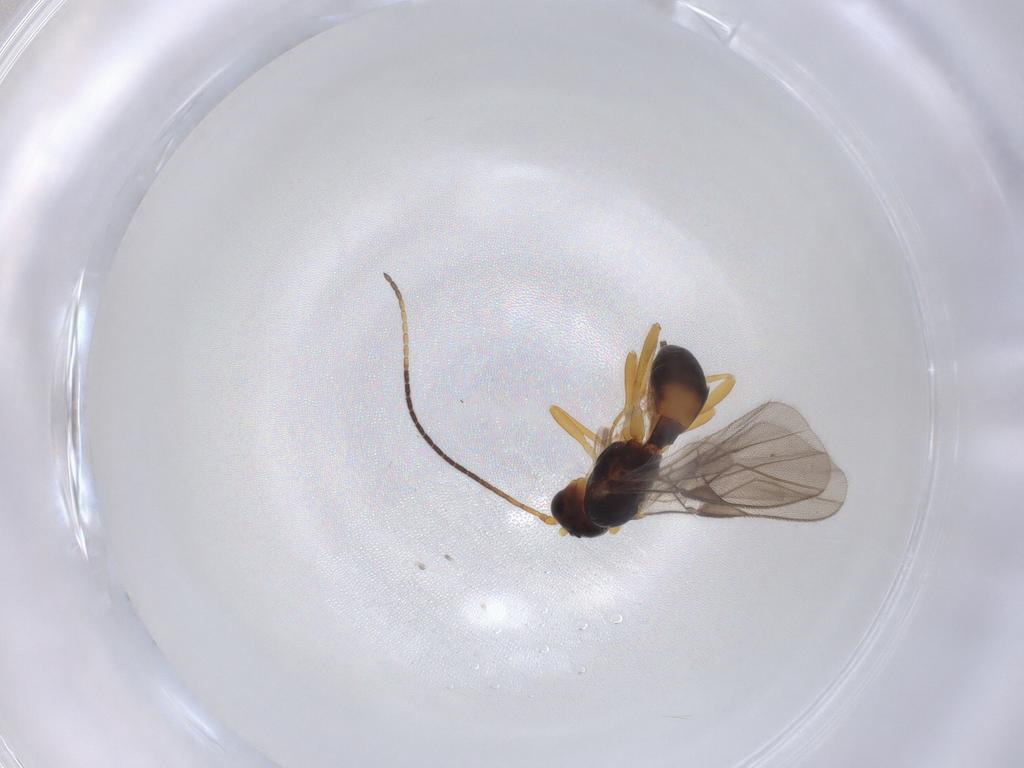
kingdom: Animalia
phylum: Arthropoda
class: Insecta
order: Hymenoptera
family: Braconidae
